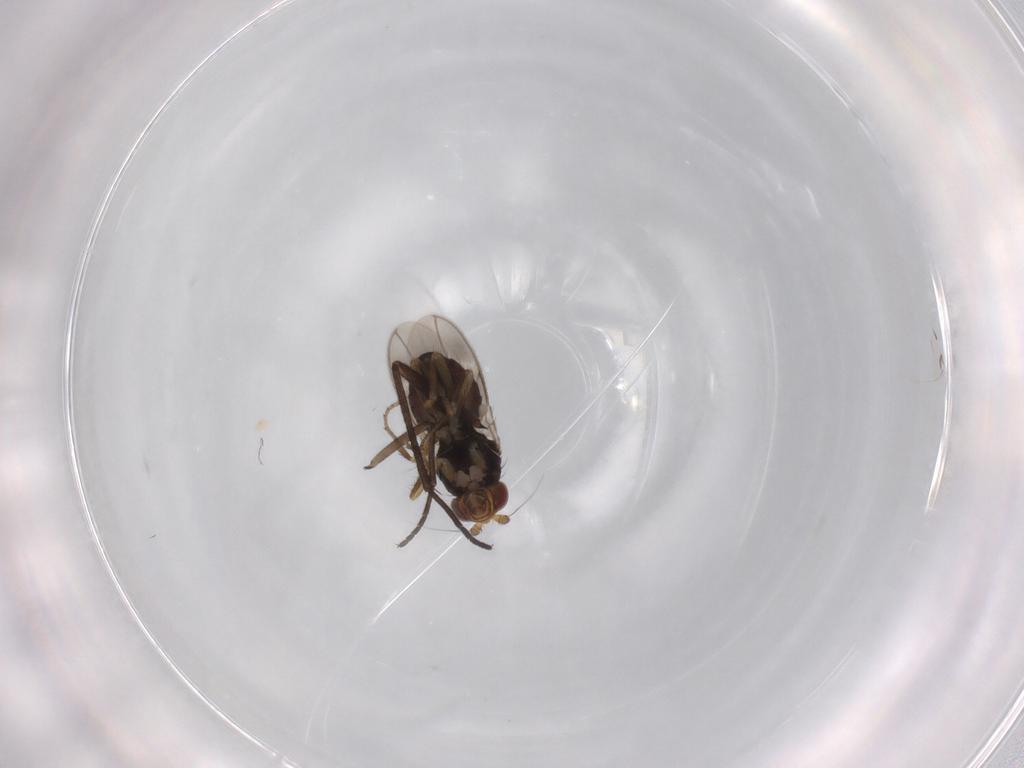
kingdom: Animalia
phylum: Arthropoda
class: Insecta
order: Diptera
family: Sphaeroceridae
